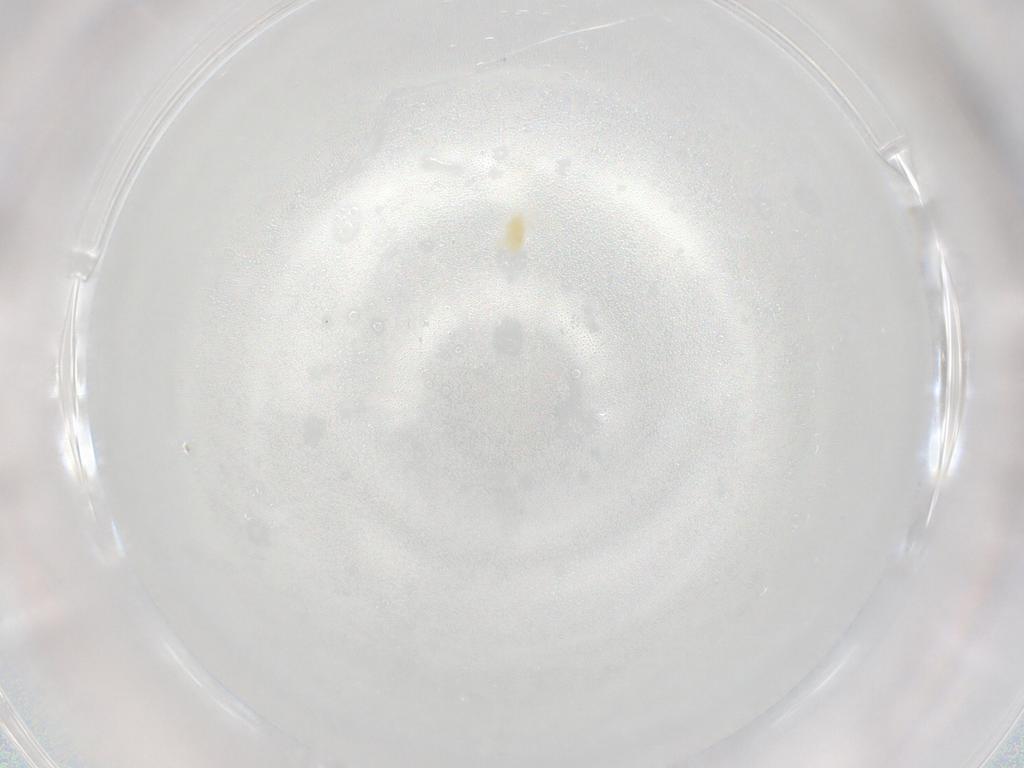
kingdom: Animalia
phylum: Arthropoda
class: Arachnida
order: Trombidiformes
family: Eupodidae
